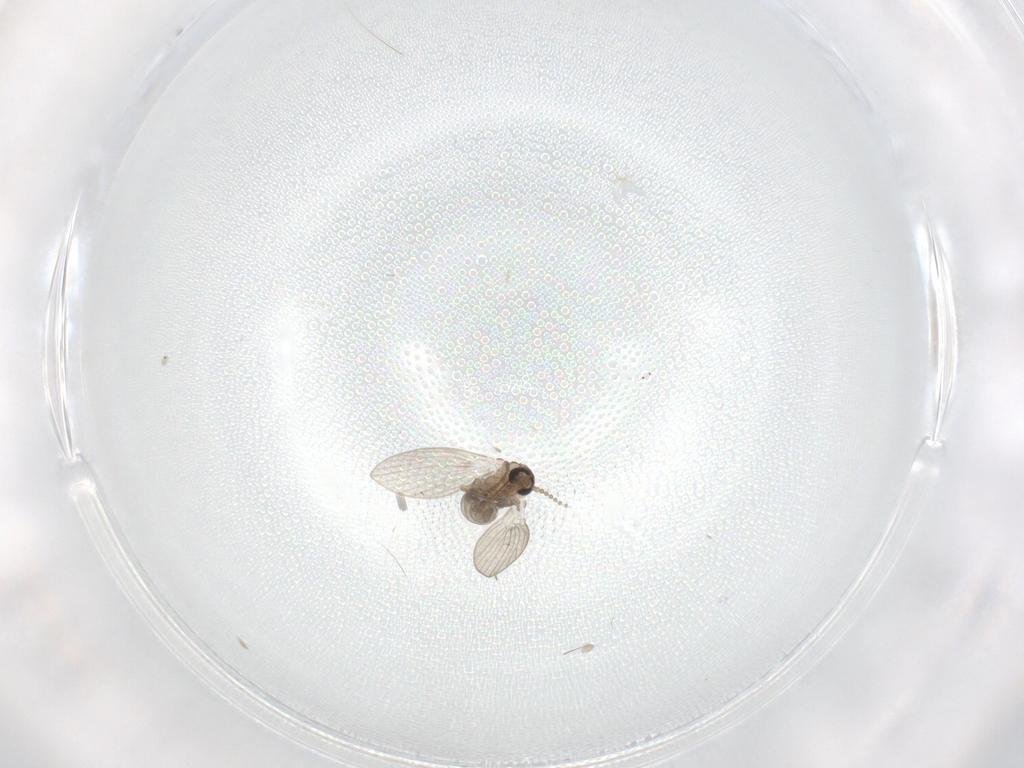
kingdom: Animalia
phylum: Arthropoda
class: Insecta
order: Diptera
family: Psychodidae
